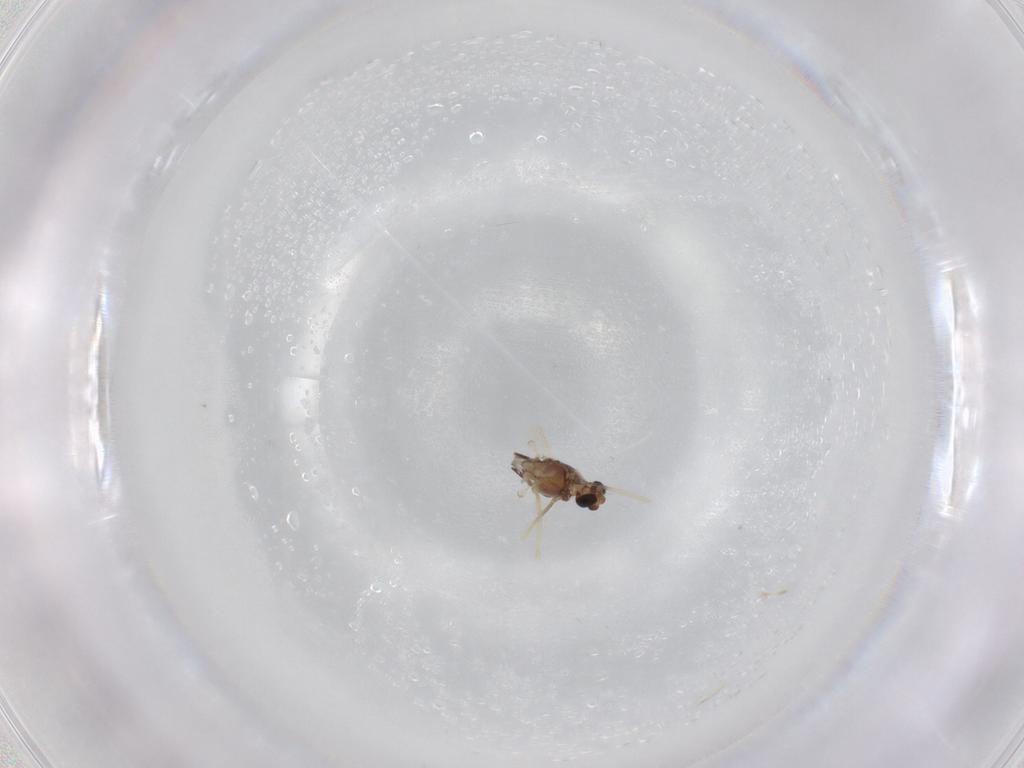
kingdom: Animalia
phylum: Arthropoda
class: Insecta
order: Diptera
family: Chironomidae
